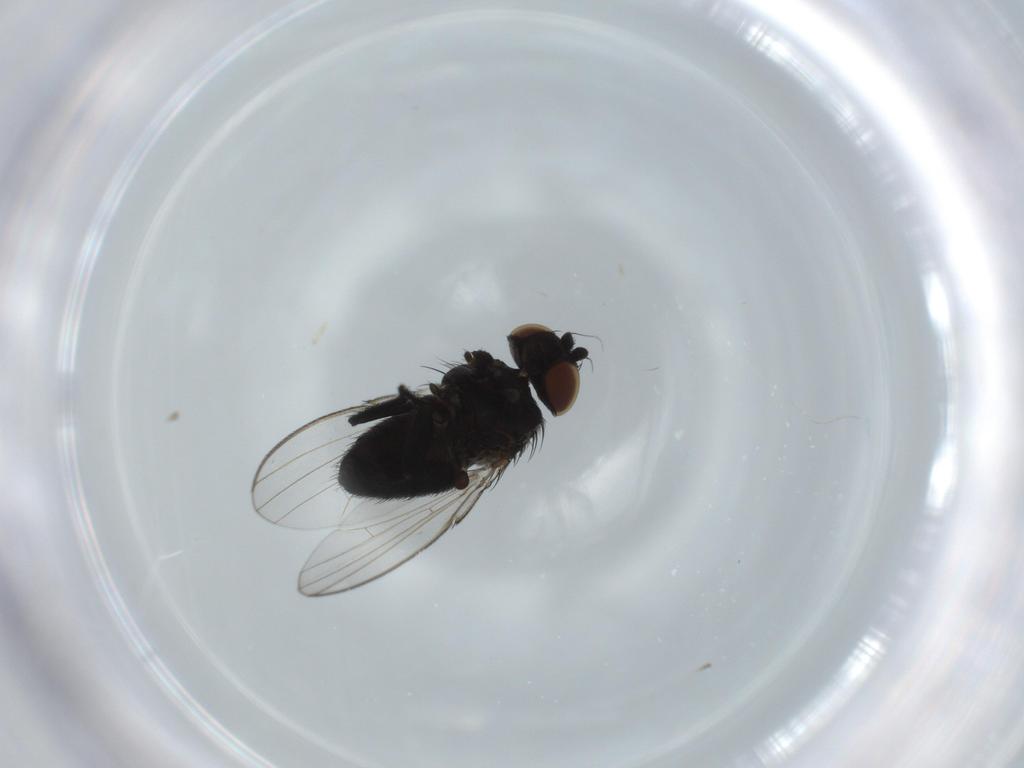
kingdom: Animalia
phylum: Arthropoda
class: Insecta
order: Diptera
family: Milichiidae
